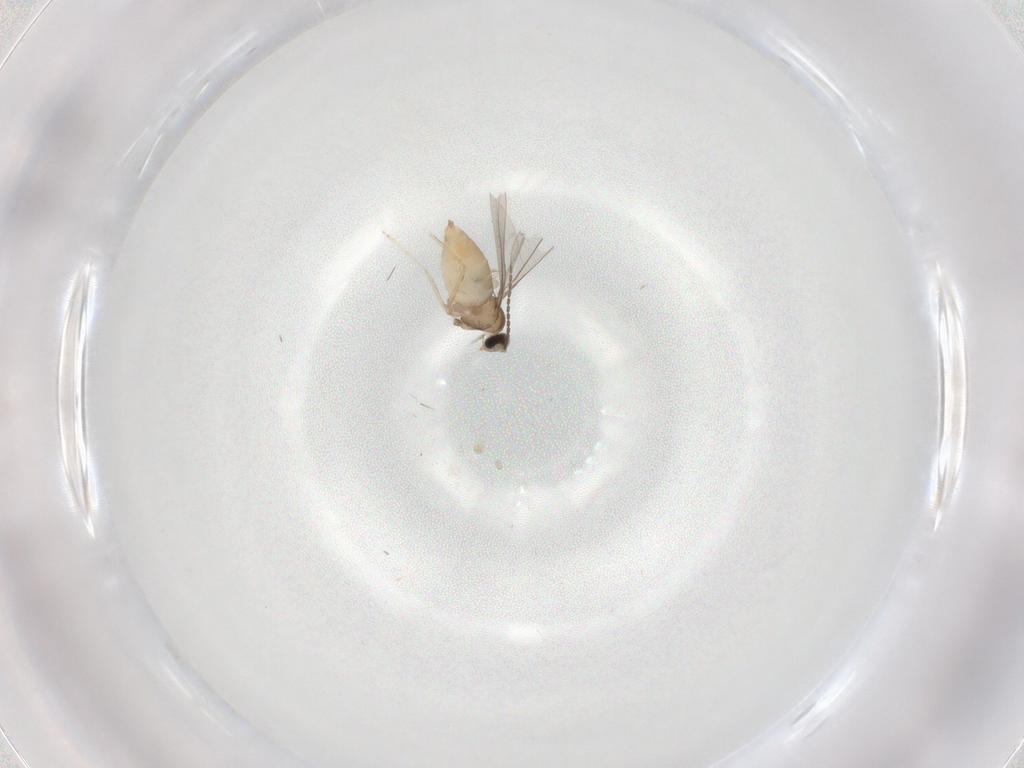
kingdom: Animalia
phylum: Arthropoda
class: Insecta
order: Diptera
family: Cecidomyiidae
